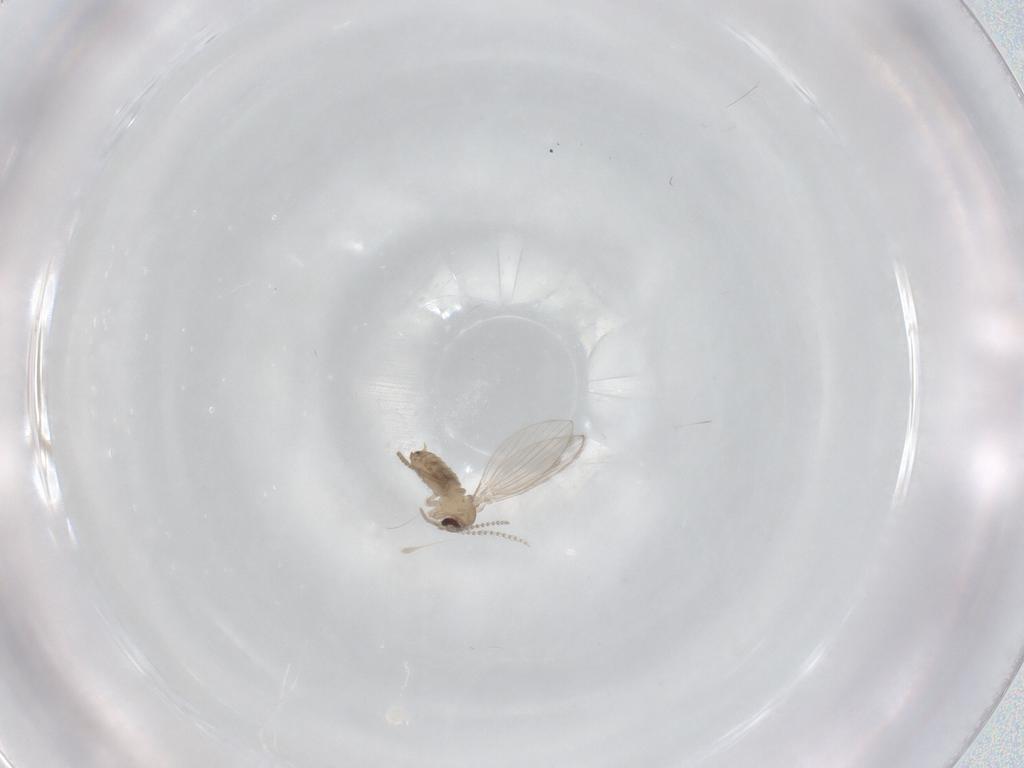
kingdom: Animalia
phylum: Arthropoda
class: Insecta
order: Diptera
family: Psychodidae
